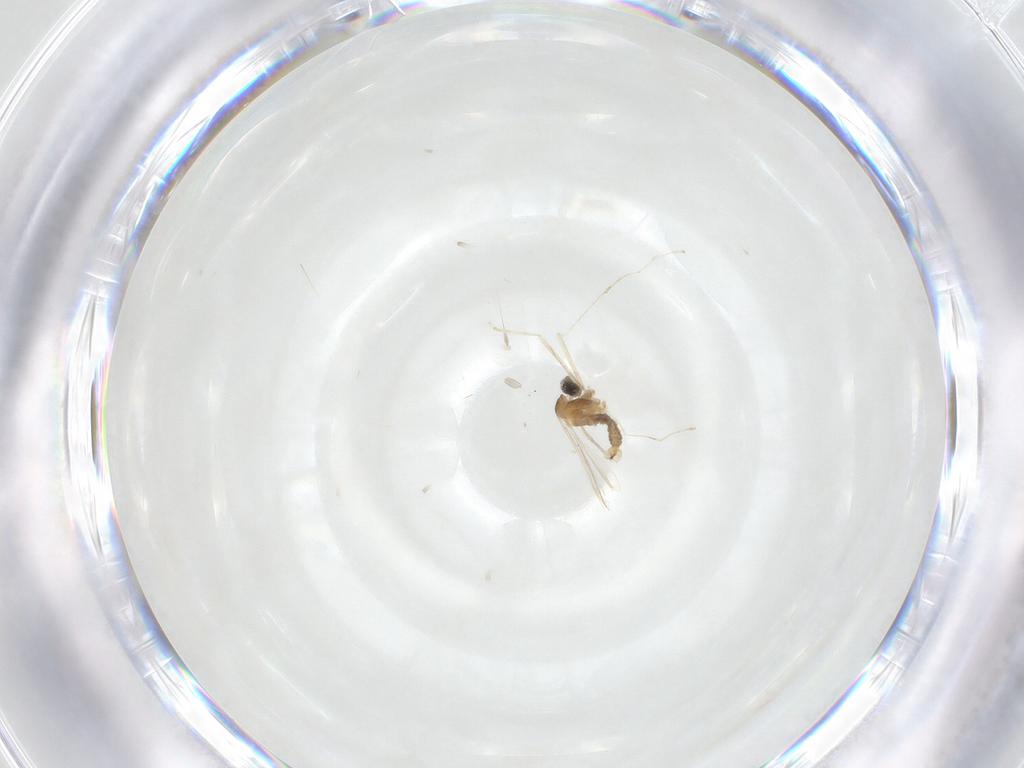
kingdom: Animalia
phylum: Arthropoda
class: Insecta
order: Diptera
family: Cecidomyiidae
